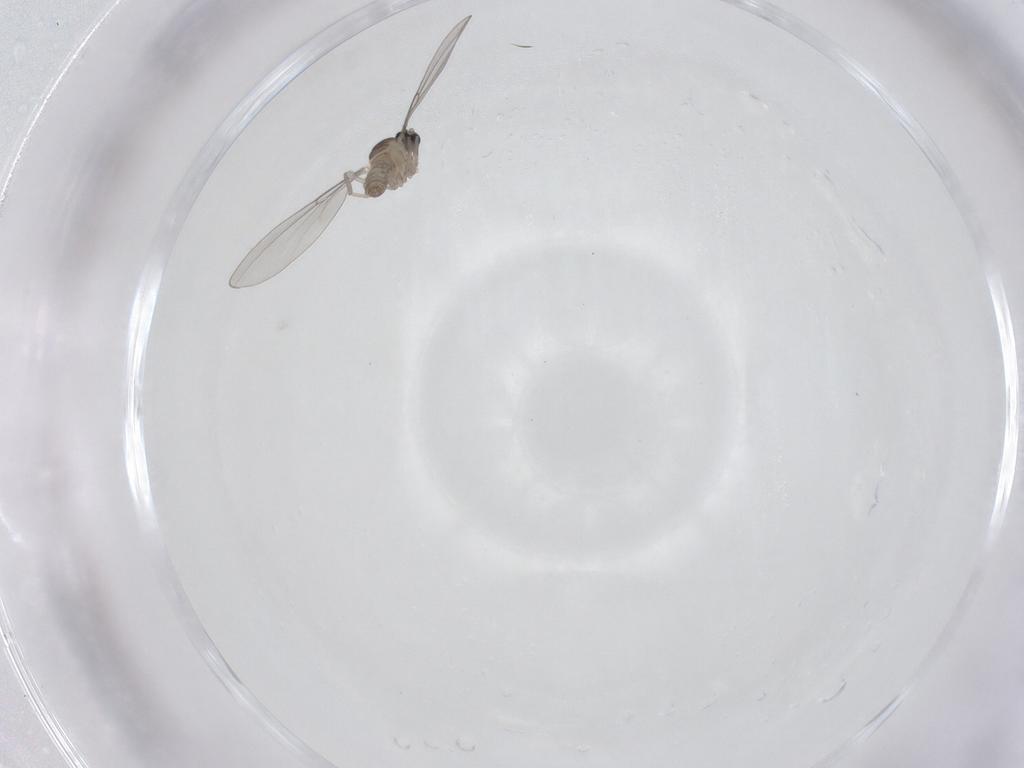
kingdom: Animalia
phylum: Arthropoda
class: Insecta
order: Diptera
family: Cecidomyiidae
